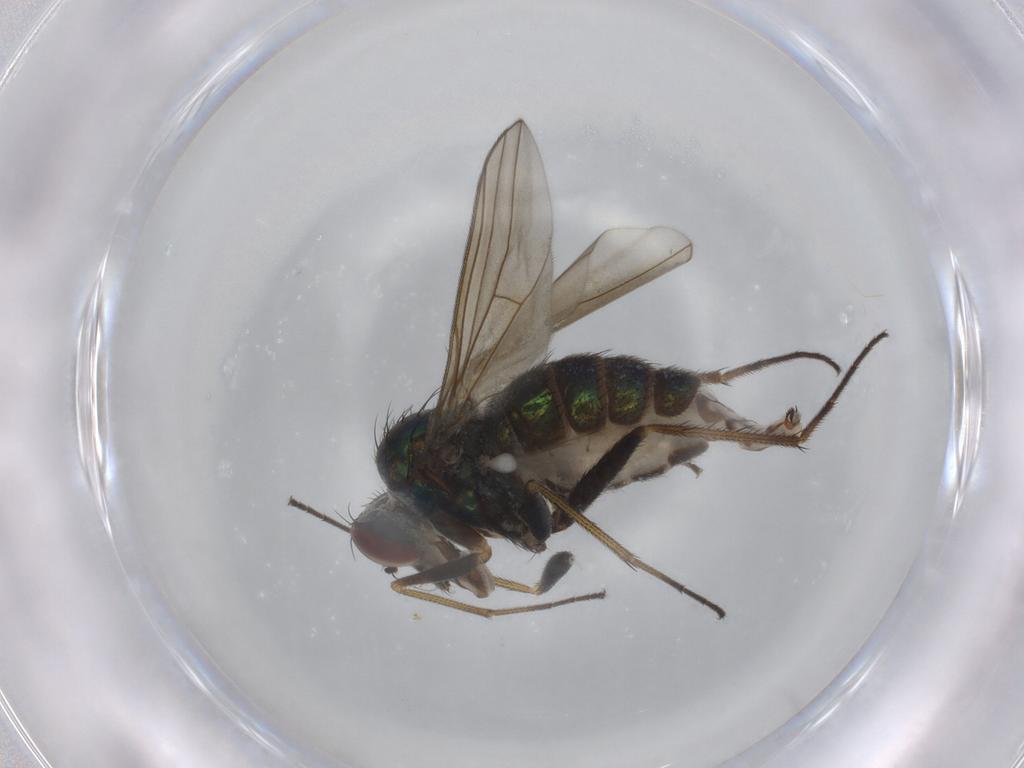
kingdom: Animalia
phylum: Arthropoda
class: Insecta
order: Diptera
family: Dolichopodidae
